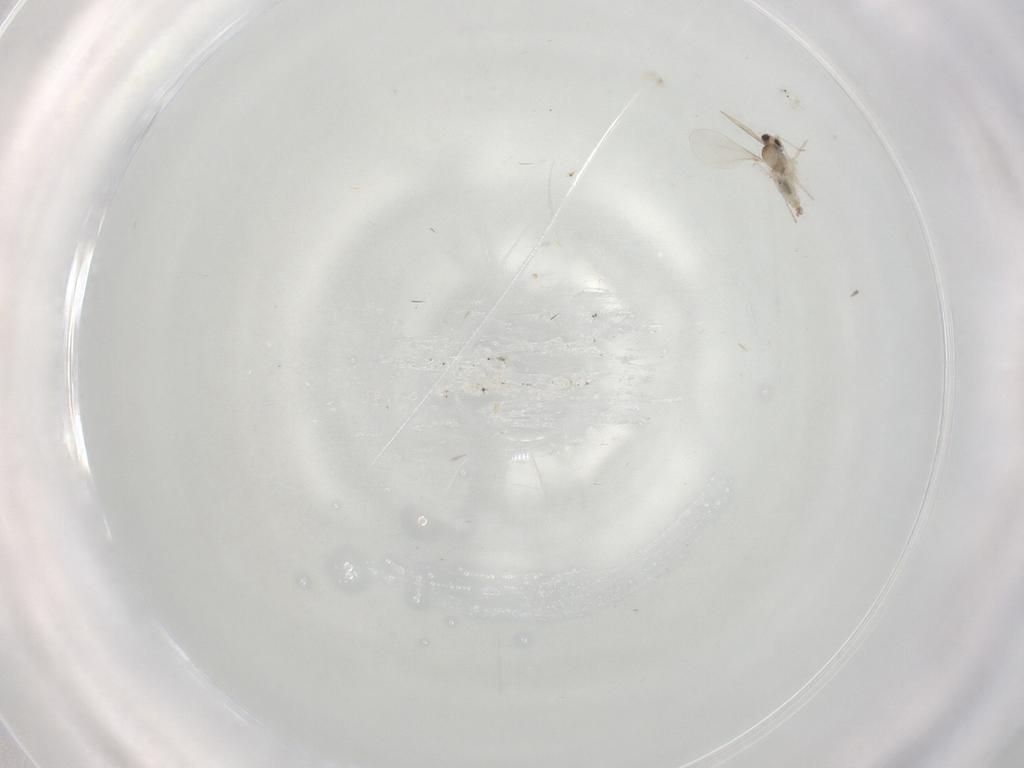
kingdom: Animalia
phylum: Arthropoda
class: Insecta
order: Diptera
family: Cecidomyiidae
